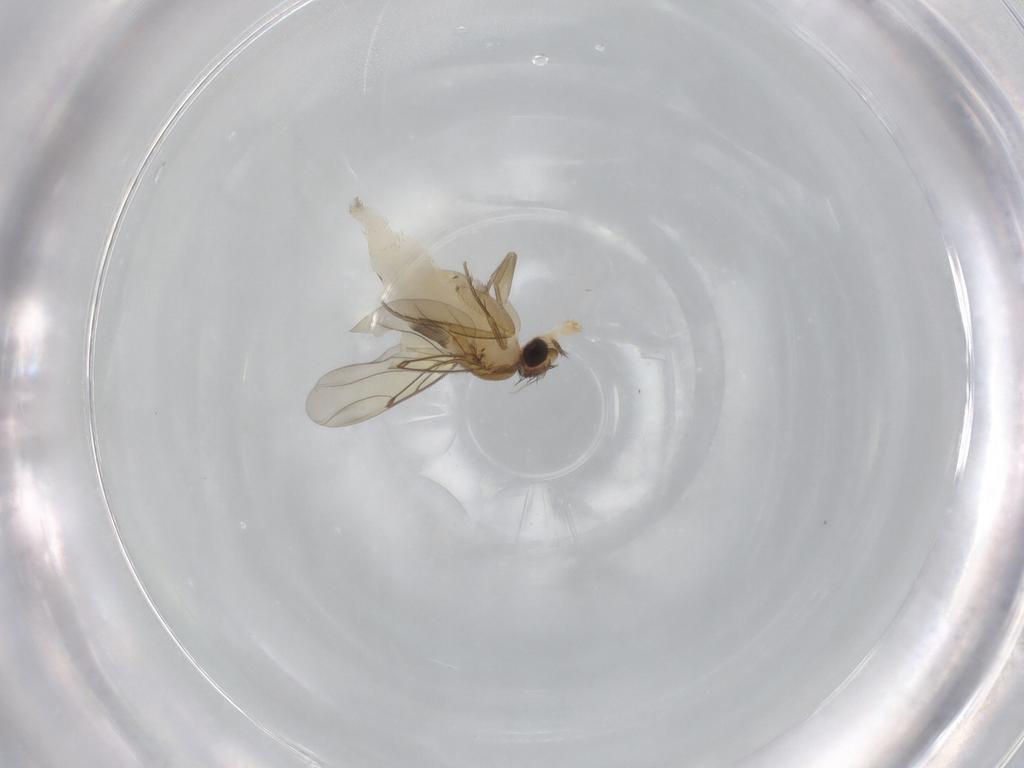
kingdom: Animalia
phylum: Arthropoda
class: Insecta
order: Diptera
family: Phoridae
